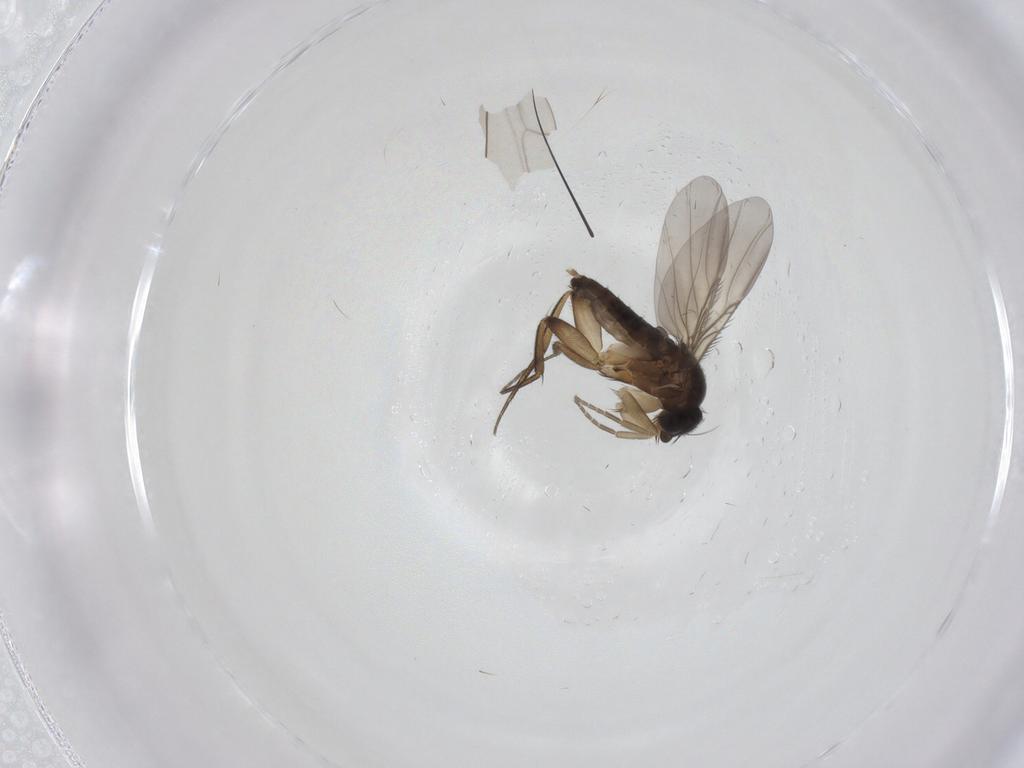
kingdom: Animalia
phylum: Arthropoda
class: Insecta
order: Diptera
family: Phoridae
